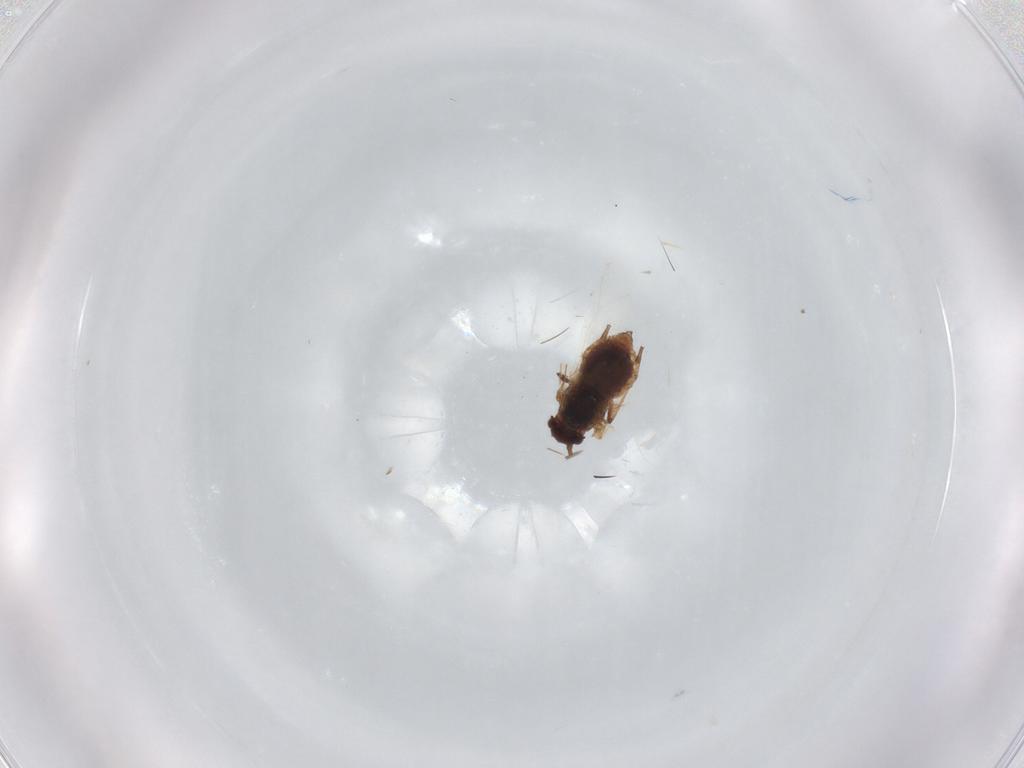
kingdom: Animalia
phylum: Arthropoda
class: Insecta
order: Hemiptera
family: Aphididae
